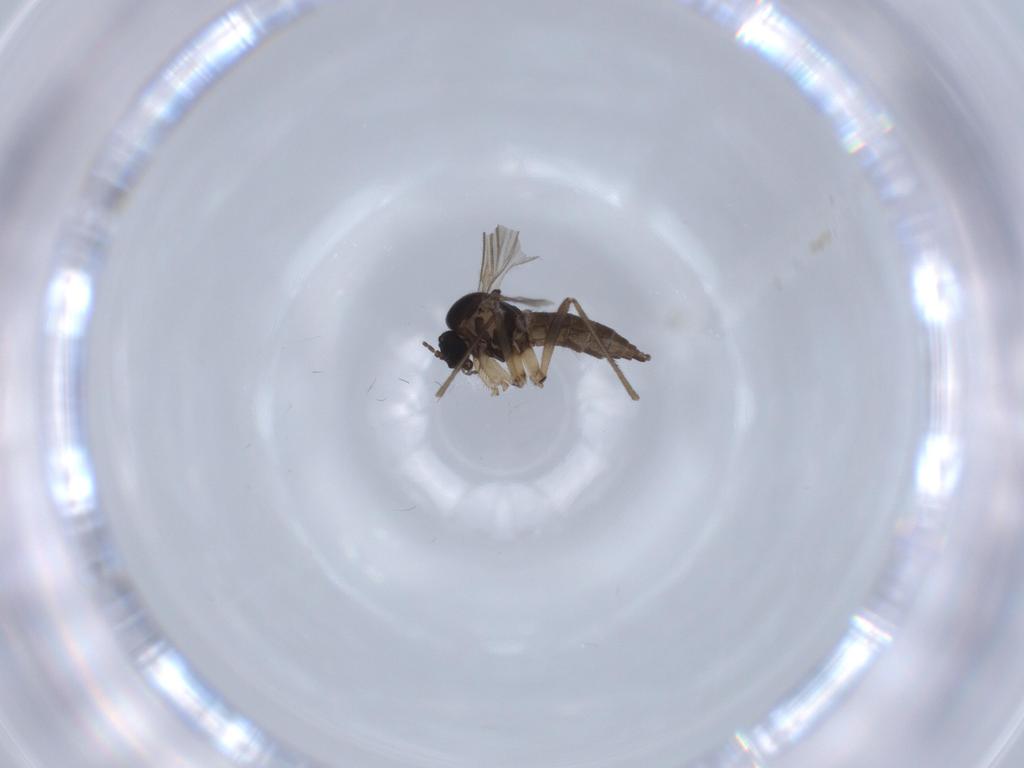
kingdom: Animalia
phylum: Arthropoda
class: Insecta
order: Diptera
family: Sciaridae
